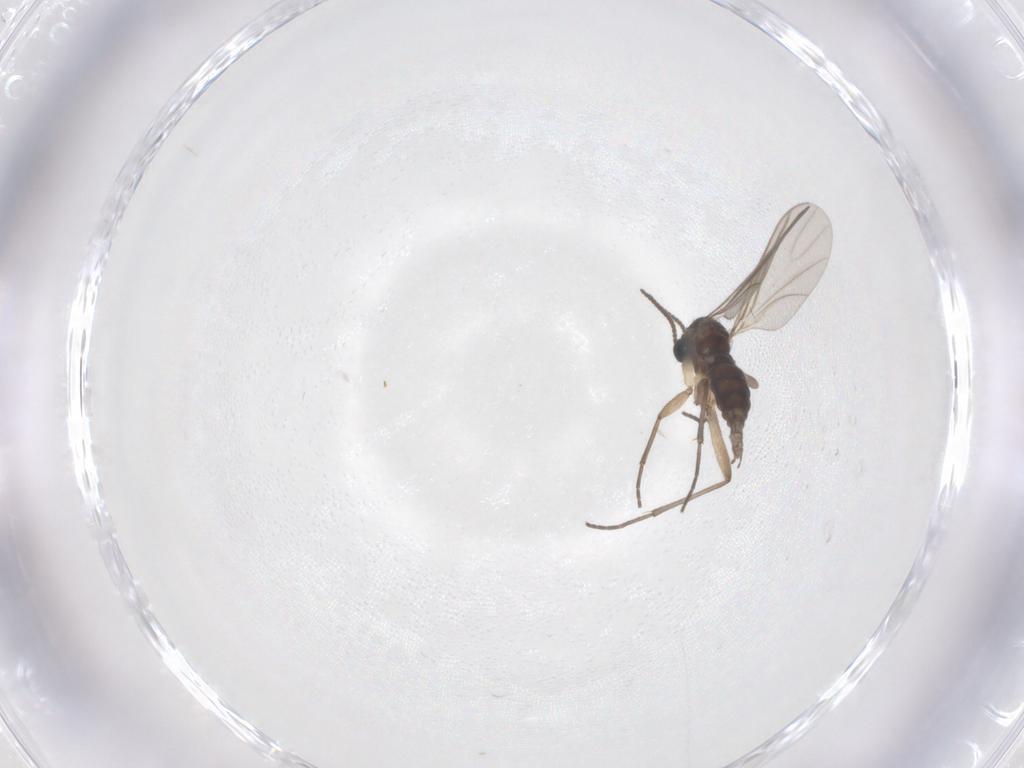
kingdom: Animalia
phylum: Arthropoda
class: Insecta
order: Diptera
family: Sciaridae
